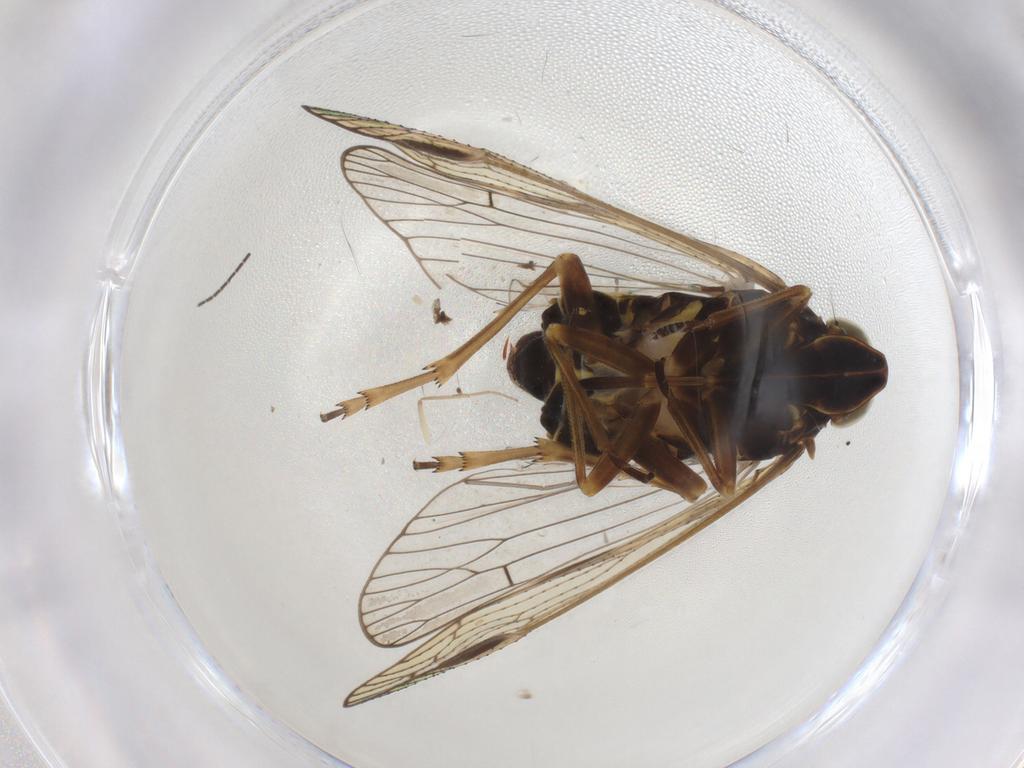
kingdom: Animalia
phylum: Arthropoda
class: Insecta
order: Hemiptera
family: Cixiidae
